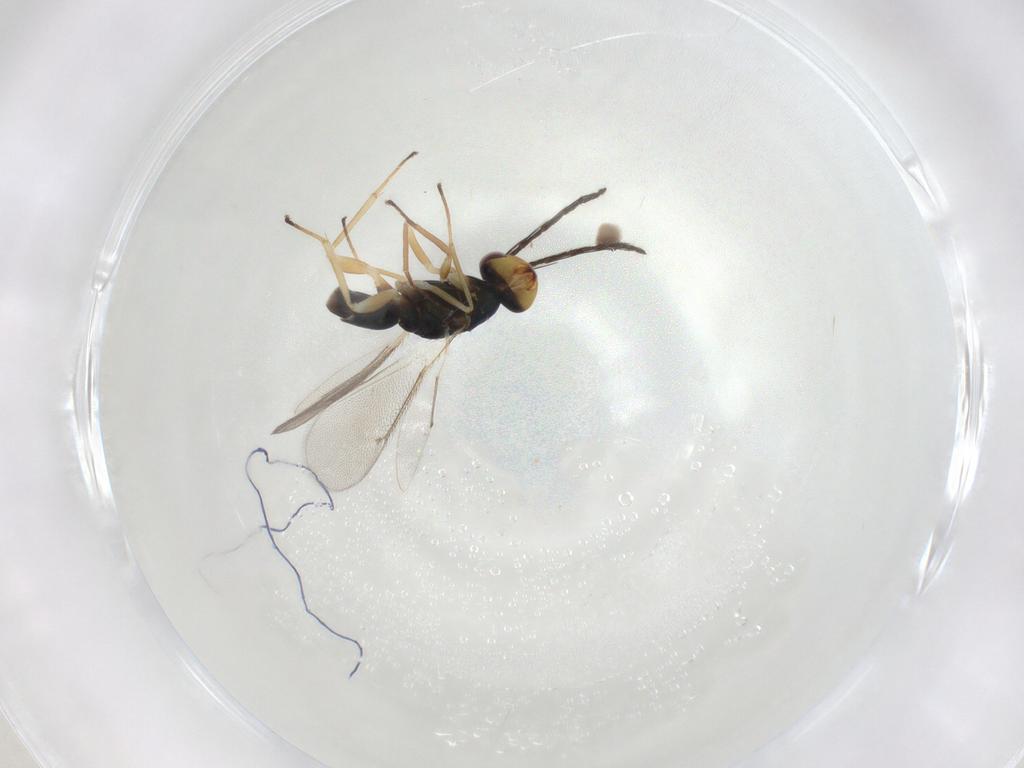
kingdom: Animalia
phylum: Arthropoda
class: Insecta
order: Hymenoptera
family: Eulophidae
